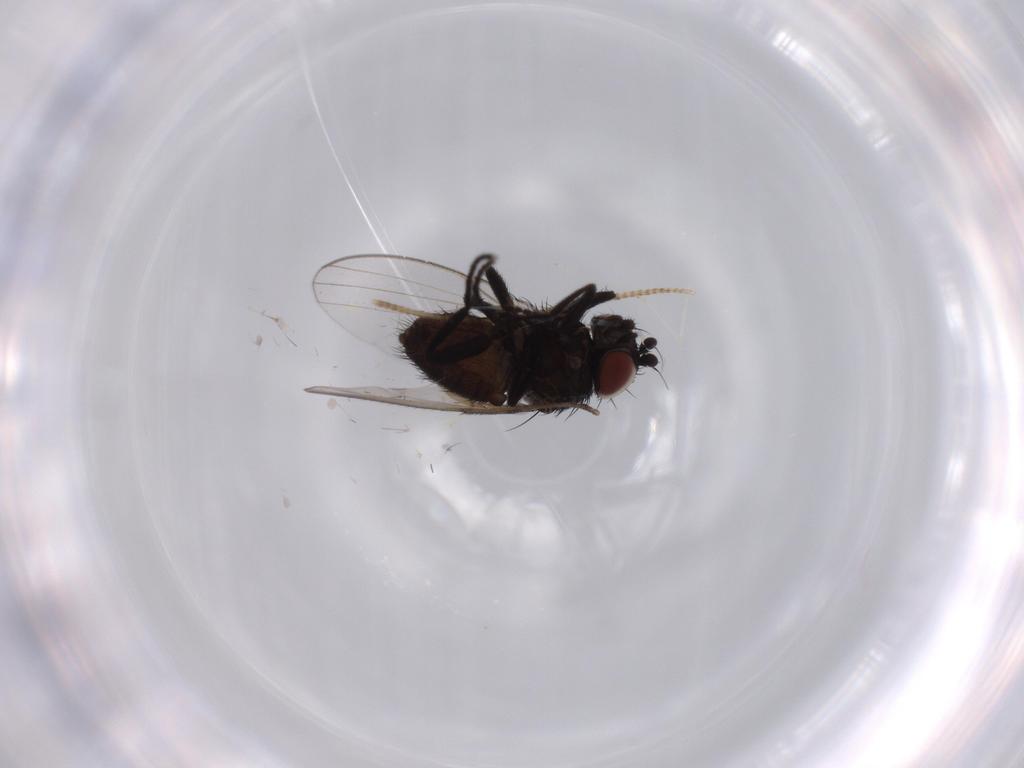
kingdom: Animalia
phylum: Arthropoda
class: Insecta
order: Diptera
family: Milichiidae
